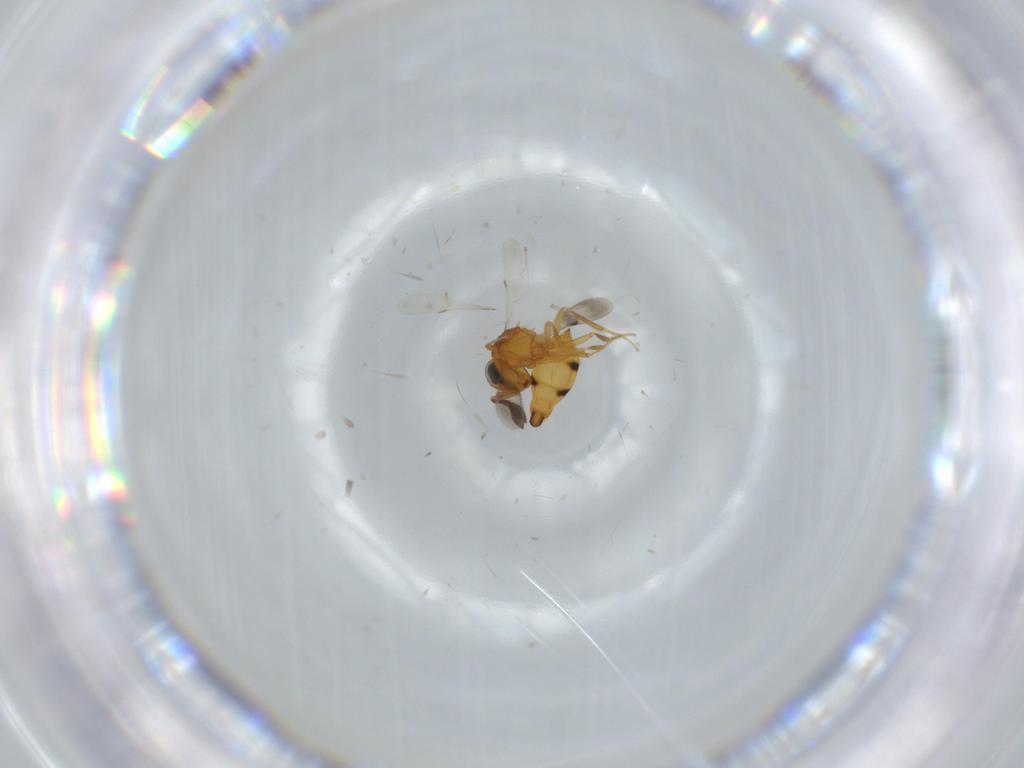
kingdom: Animalia
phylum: Arthropoda
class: Insecta
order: Hymenoptera
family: Scelionidae
